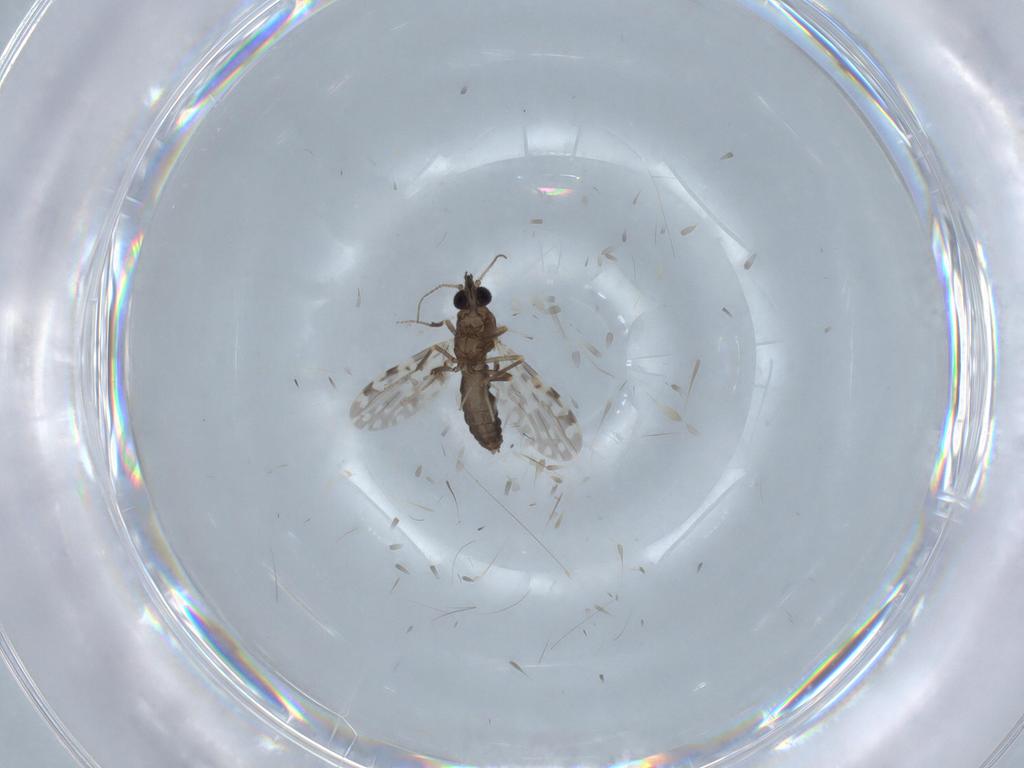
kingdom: Animalia
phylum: Arthropoda
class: Insecta
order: Diptera
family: Ceratopogonidae
